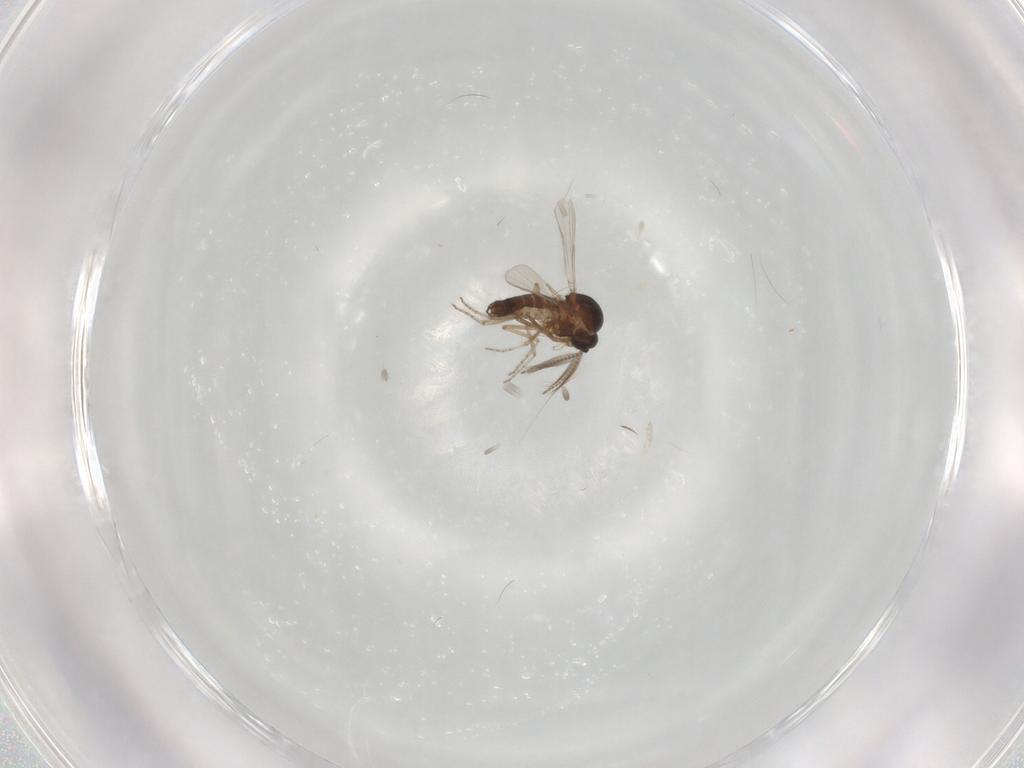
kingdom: Animalia
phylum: Arthropoda
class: Insecta
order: Diptera
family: Ceratopogonidae
